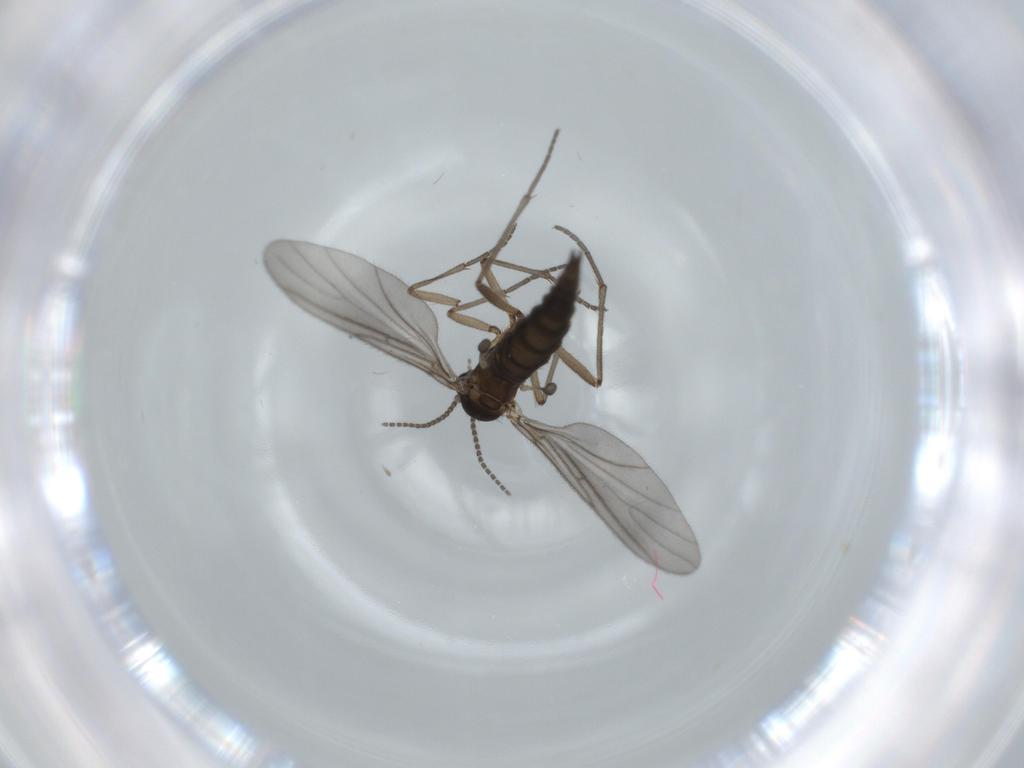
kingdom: Animalia
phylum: Arthropoda
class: Insecta
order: Diptera
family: Sciaridae
